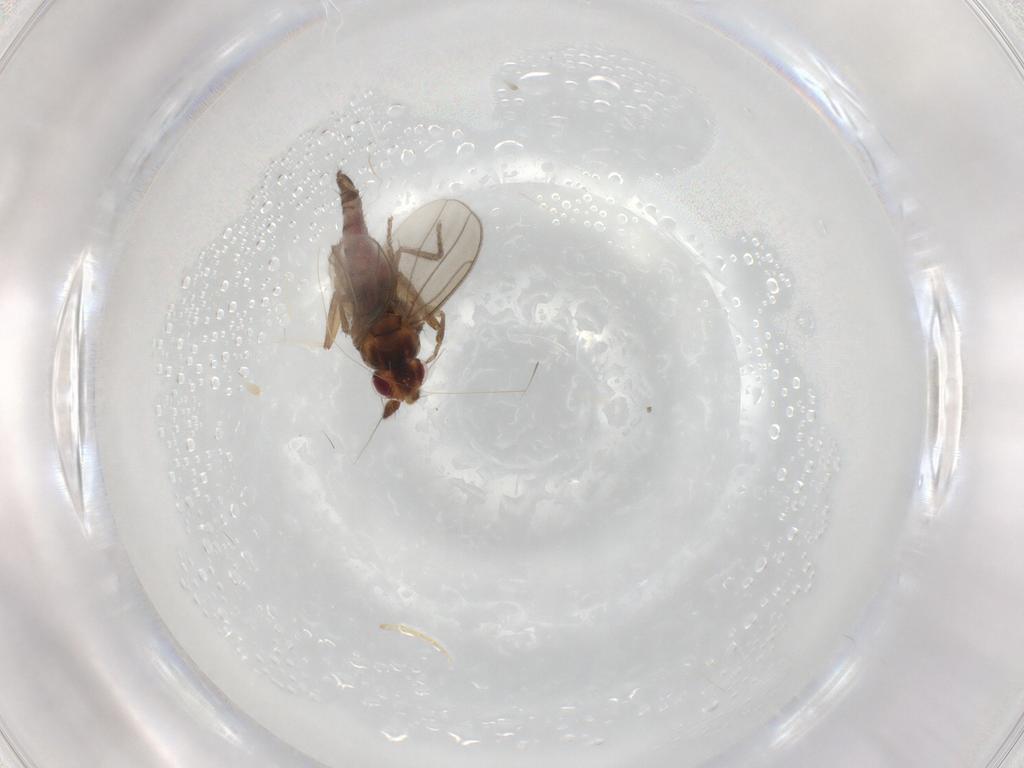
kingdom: Animalia
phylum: Arthropoda
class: Insecta
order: Diptera
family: Sphaeroceridae
